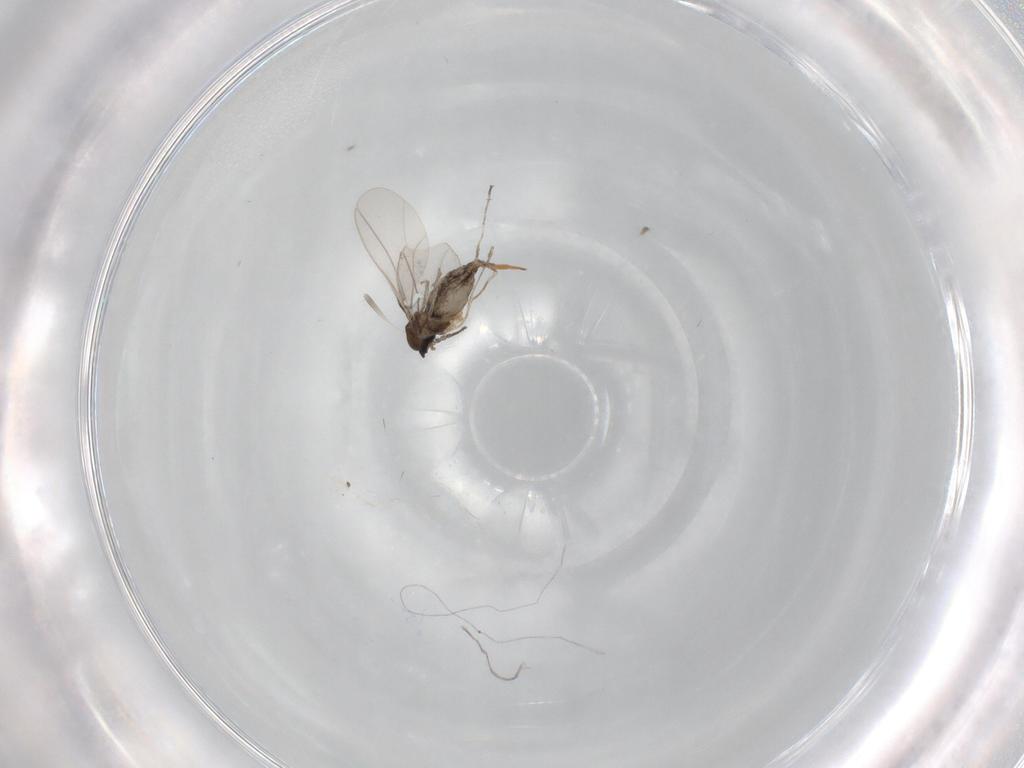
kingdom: Animalia
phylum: Arthropoda
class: Insecta
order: Diptera
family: Cecidomyiidae
